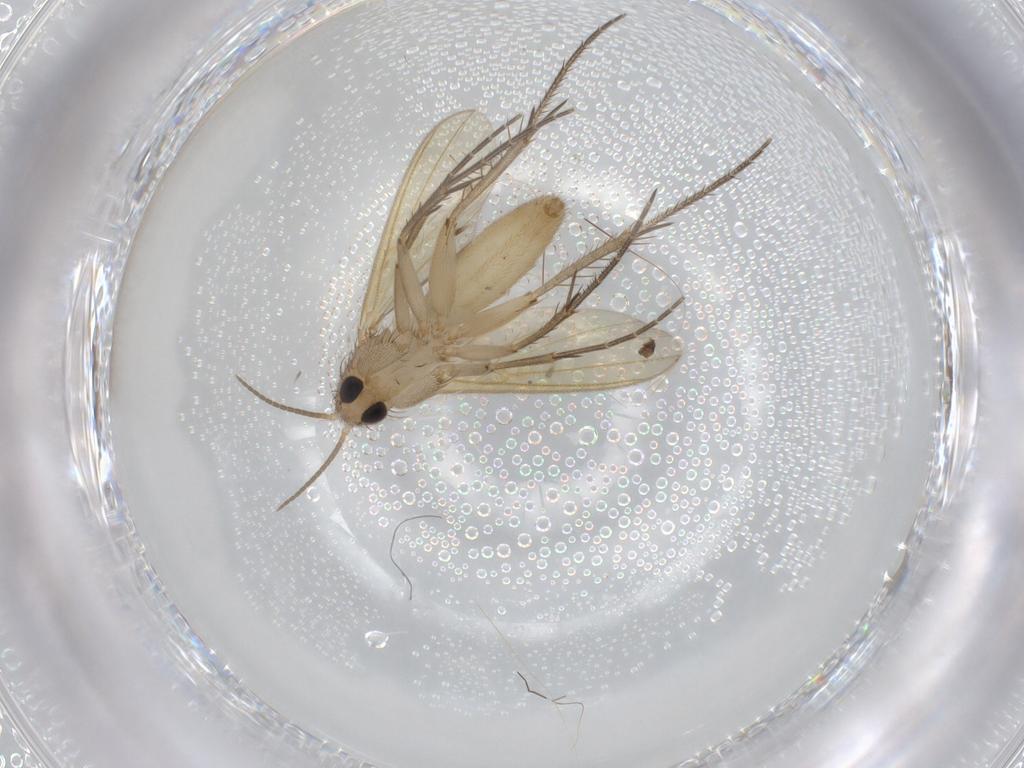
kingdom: Animalia
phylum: Arthropoda
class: Insecta
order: Diptera
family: Mycetophilidae
